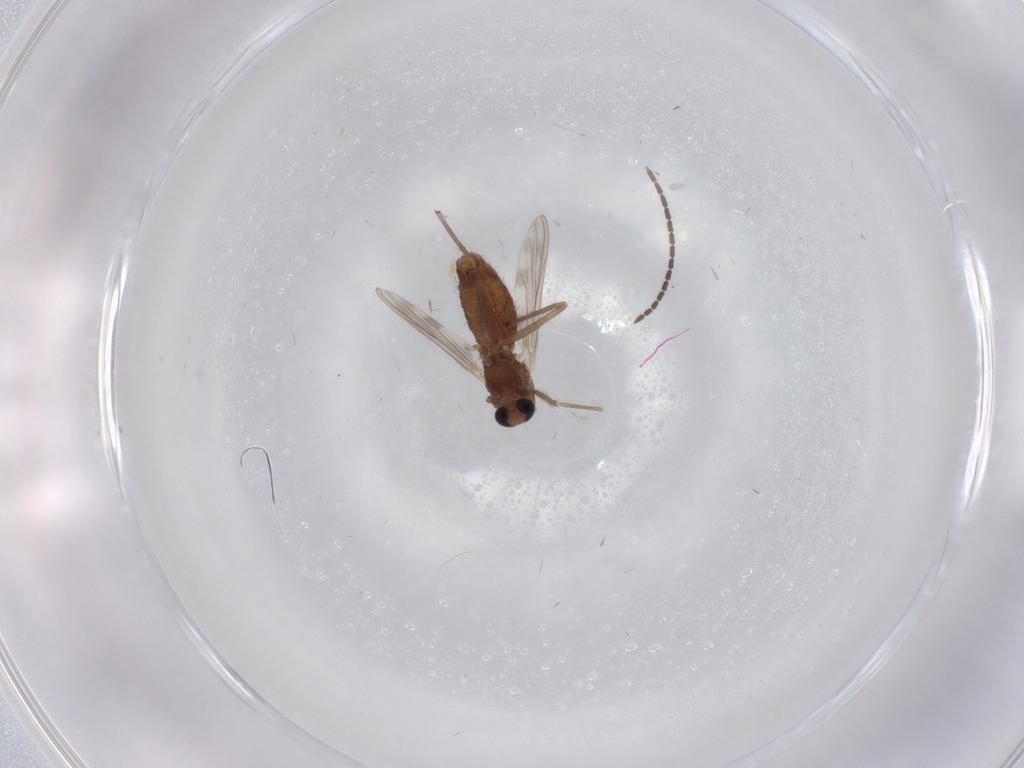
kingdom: Animalia
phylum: Arthropoda
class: Insecta
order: Diptera
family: Chironomidae
